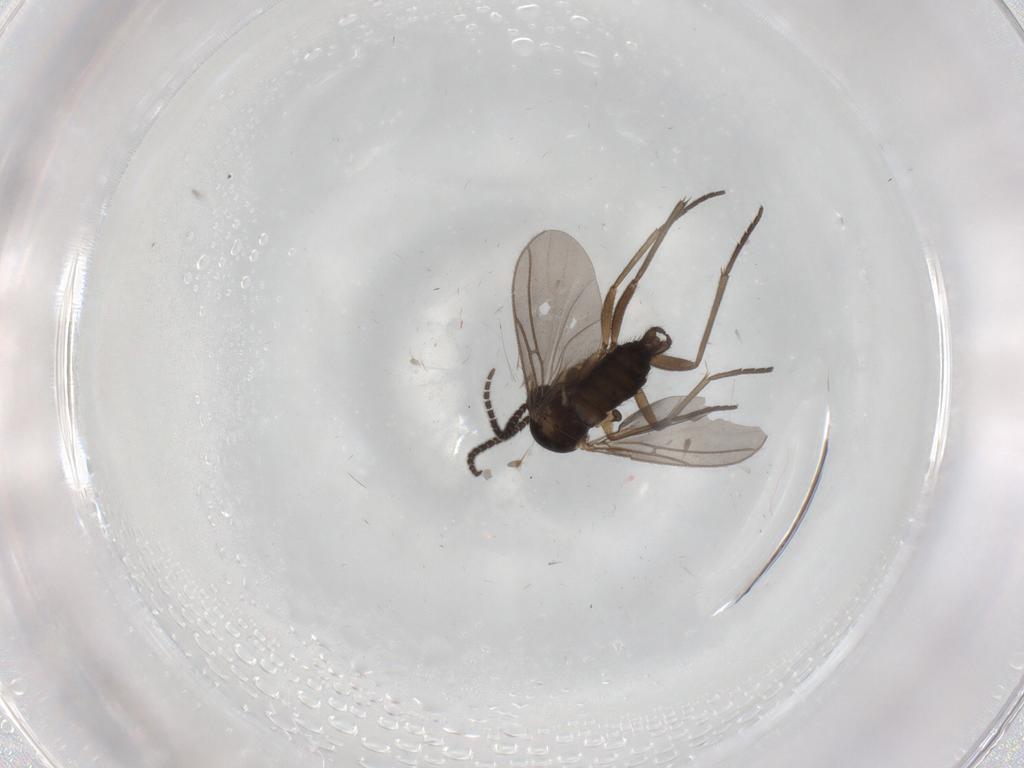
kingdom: Animalia
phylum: Arthropoda
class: Insecta
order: Diptera
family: Sciaridae
